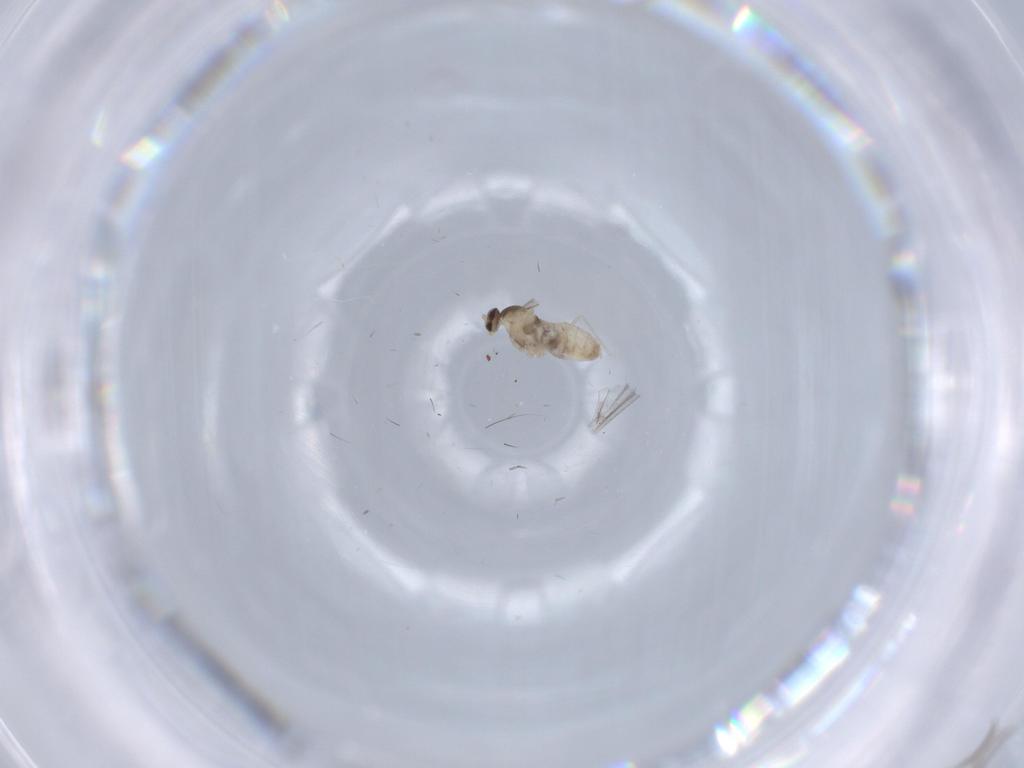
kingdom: Animalia
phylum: Arthropoda
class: Insecta
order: Diptera
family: Cecidomyiidae
